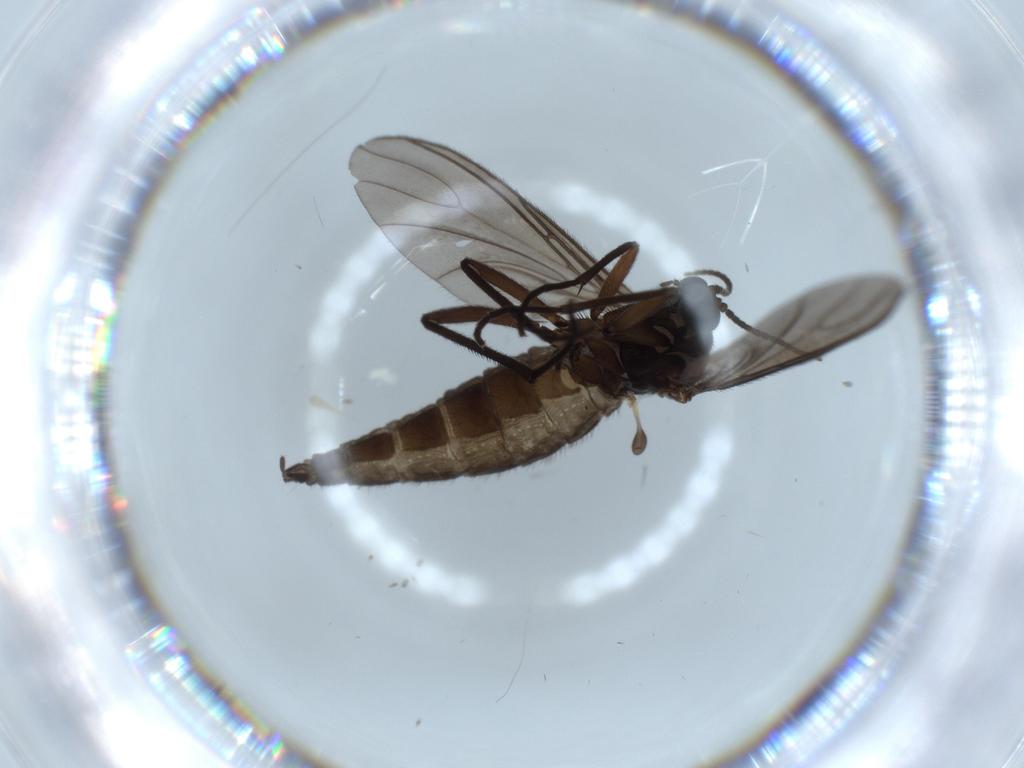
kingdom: Animalia
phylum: Arthropoda
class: Insecta
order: Diptera
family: Sciaridae
